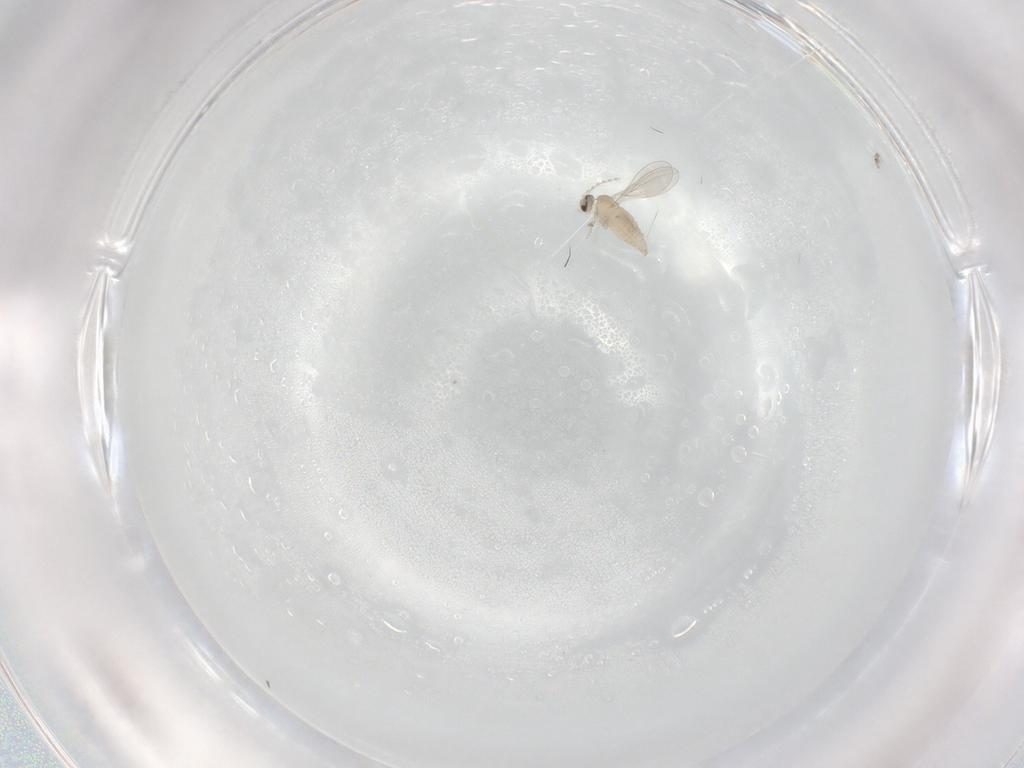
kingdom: Animalia
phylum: Arthropoda
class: Insecta
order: Diptera
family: Cecidomyiidae
